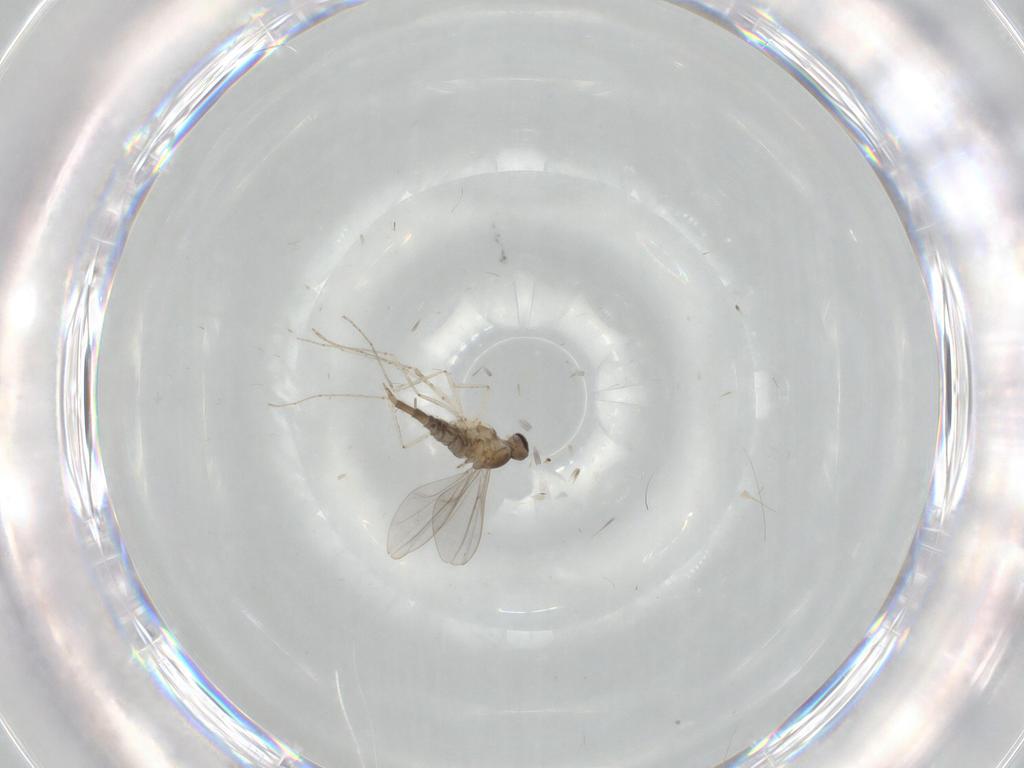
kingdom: Animalia
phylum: Arthropoda
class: Insecta
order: Diptera
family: Cecidomyiidae
